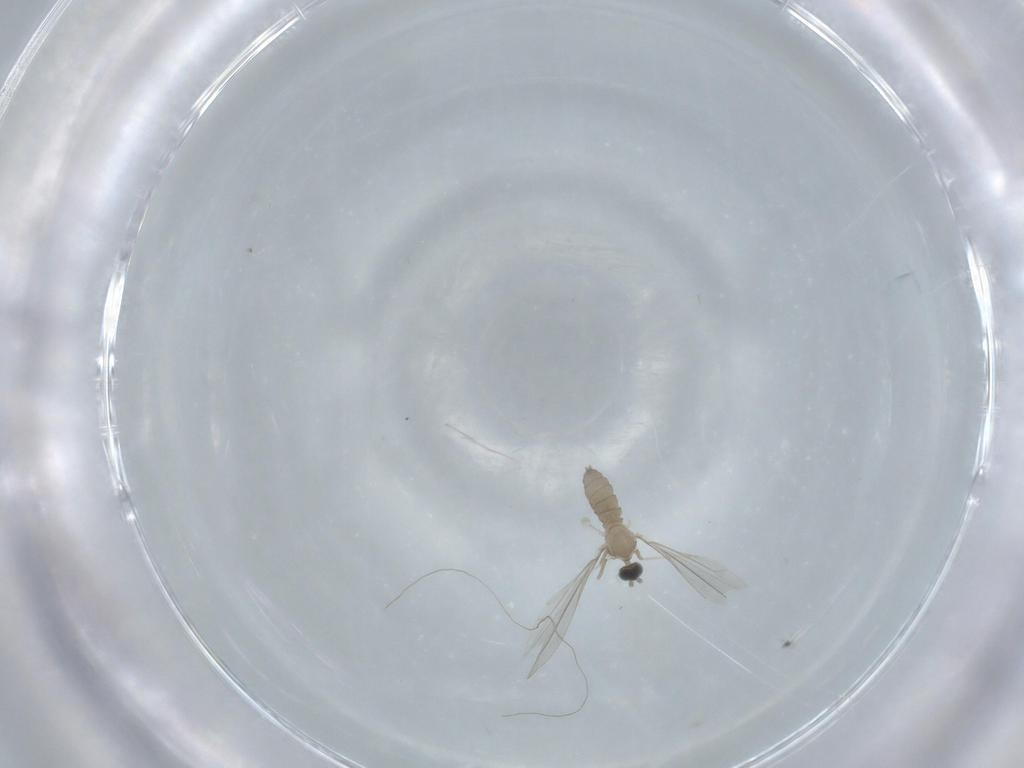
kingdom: Animalia
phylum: Arthropoda
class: Insecta
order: Diptera
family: Cecidomyiidae
